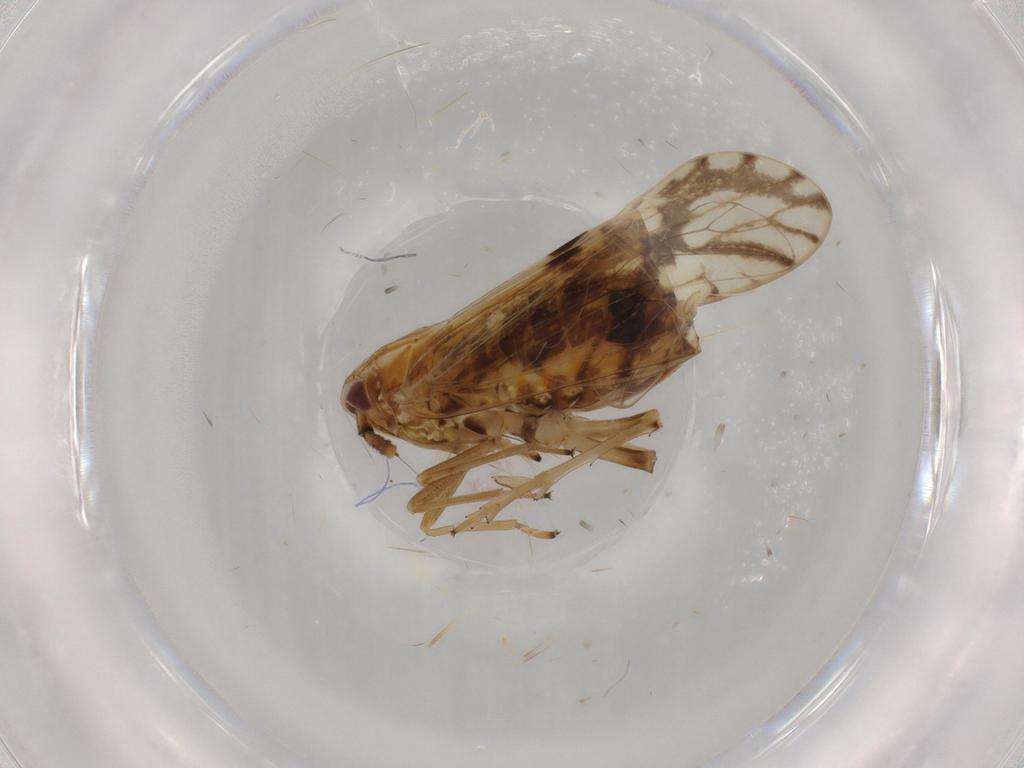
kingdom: Animalia
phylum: Arthropoda
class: Insecta
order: Hemiptera
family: Delphacidae
